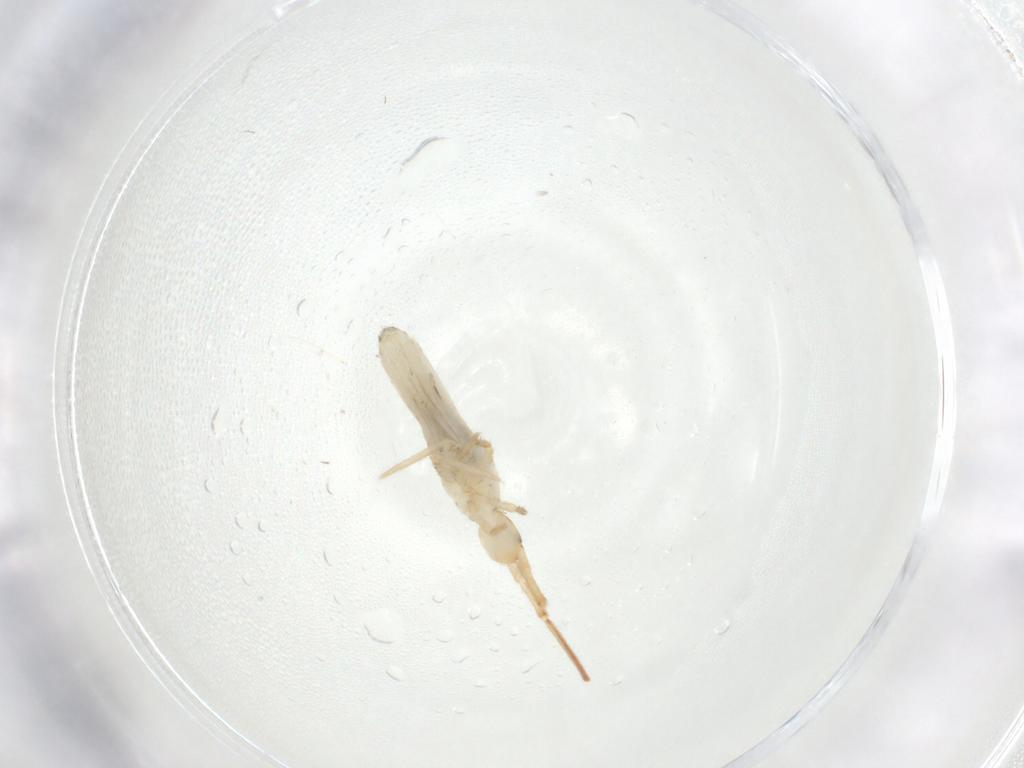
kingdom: Animalia
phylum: Arthropoda
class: Collembola
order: Entomobryomorpha
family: Entomobryidae
